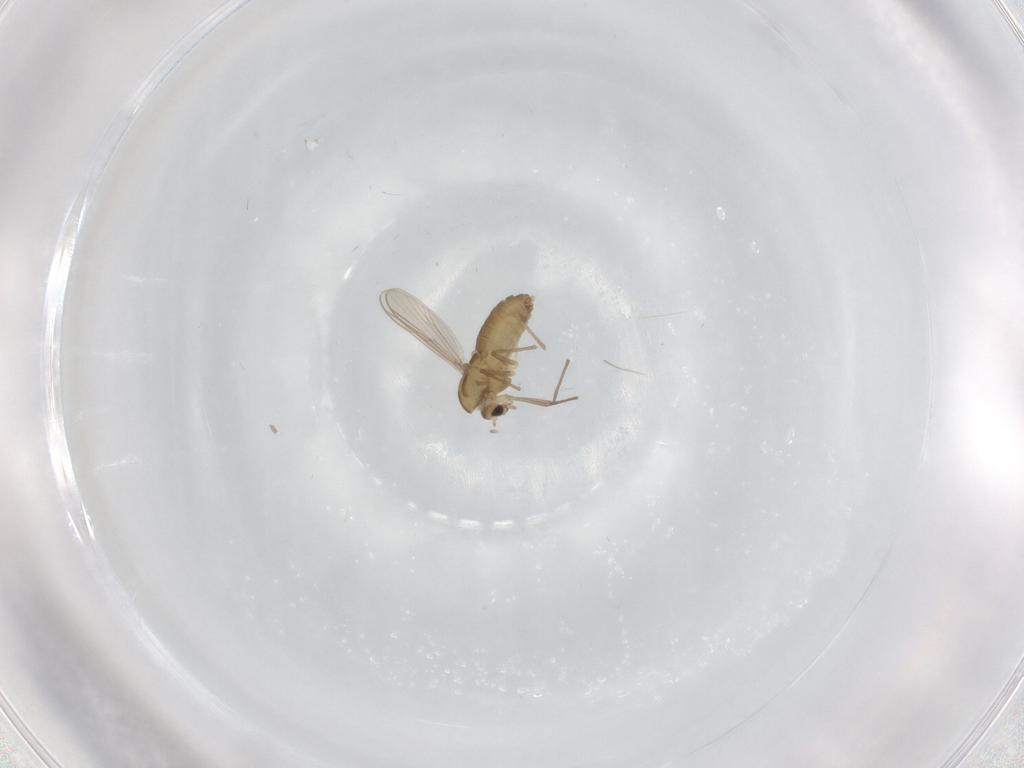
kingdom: Animalia
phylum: Arthropoda
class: Insecta
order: Diptera
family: Chironomidae
